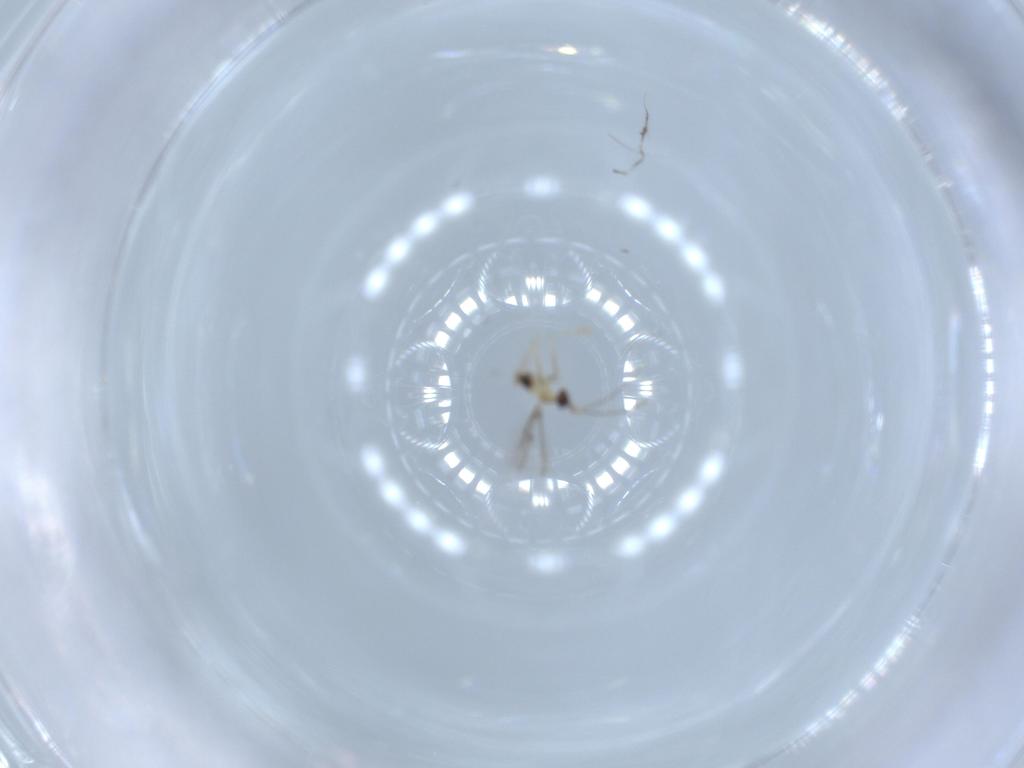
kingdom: Animalia
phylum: Arthropoda
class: Insecta
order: Hymenoptera
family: Mymaridae
